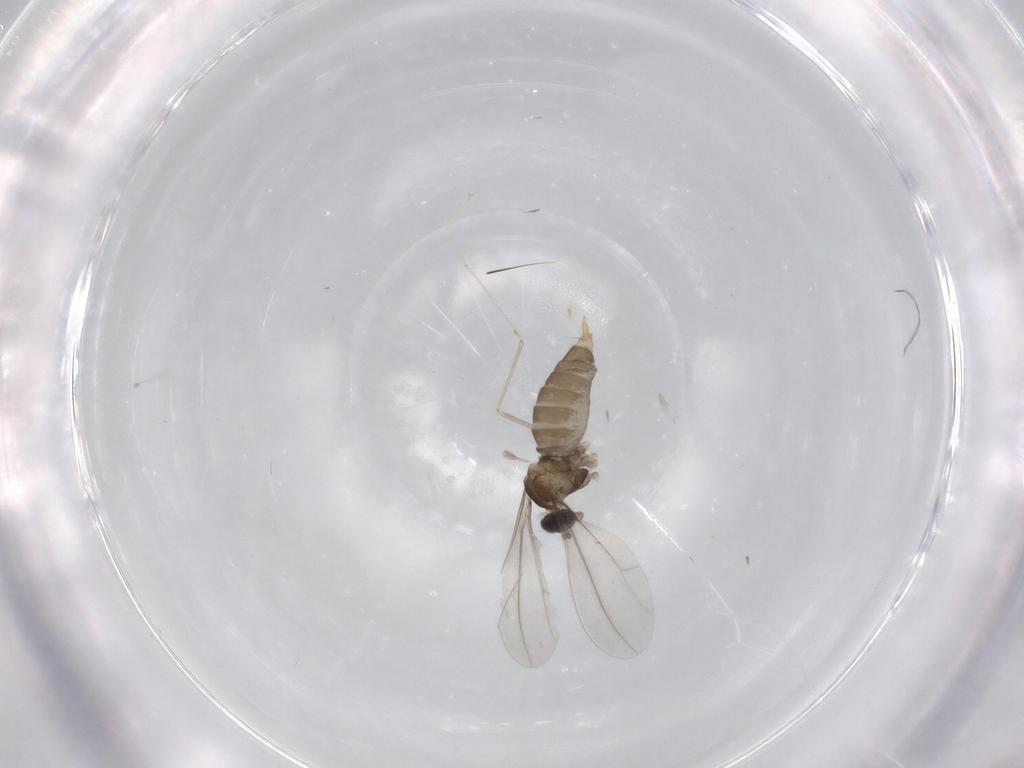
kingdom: Animalia
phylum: Arthropoda
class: Insecta
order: Diptera
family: Cecidomyiidae
